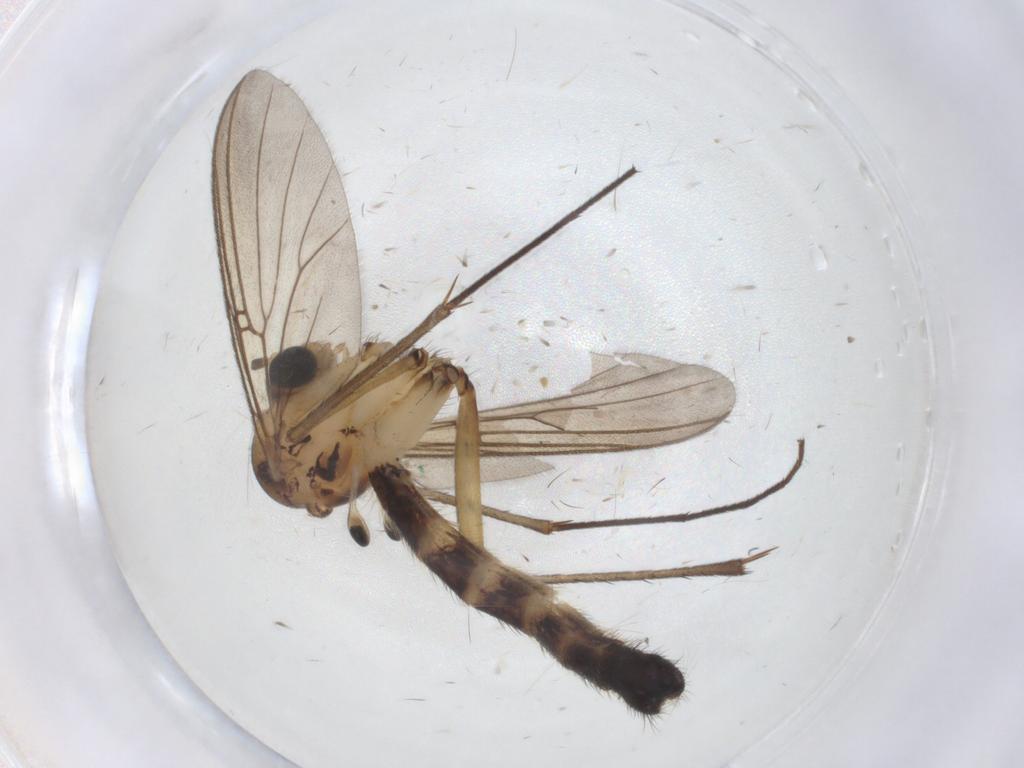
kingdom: Animalia
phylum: Arthropoda
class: Insecta
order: Diptera
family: Mycetophilidae
